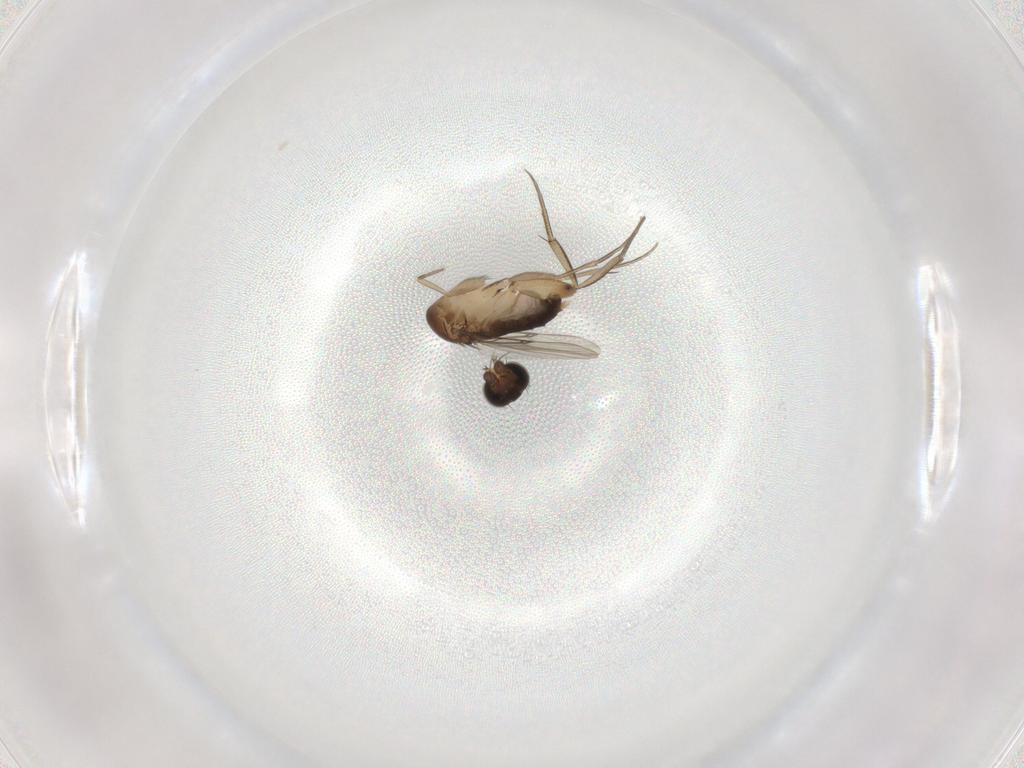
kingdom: Animalia
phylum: Arthropoda
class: Insecta
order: Diptera
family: Phoridae
